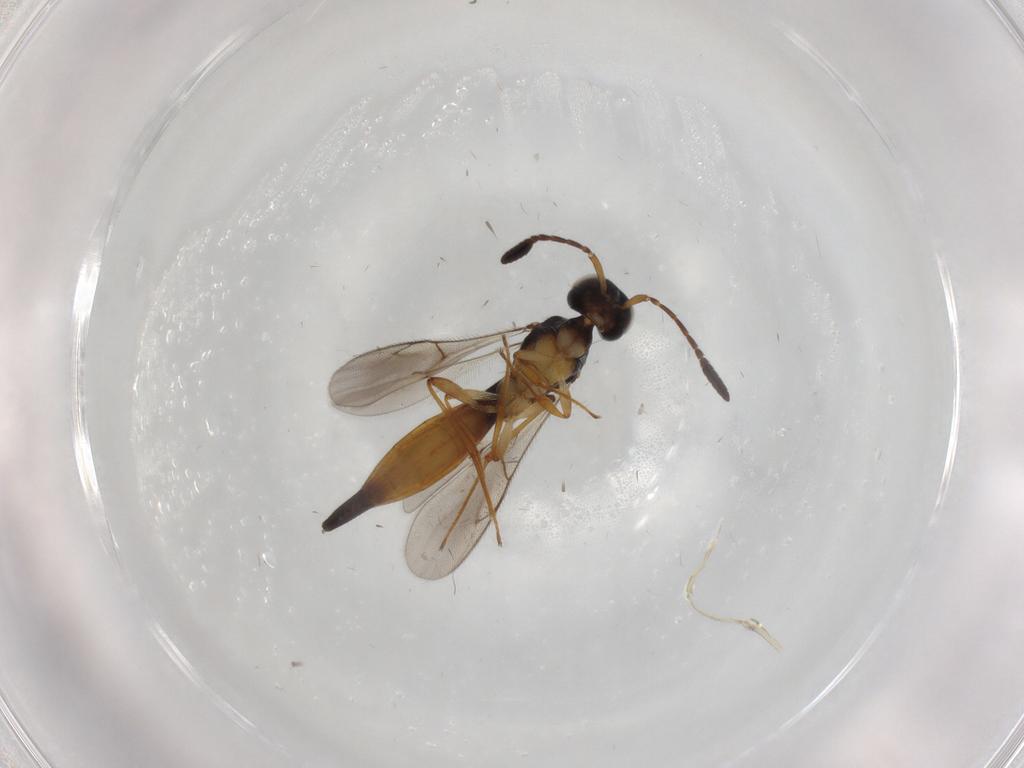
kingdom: Animalia
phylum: Arthropoda
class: Insecta
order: Hymenoptera
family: Scelionidae
